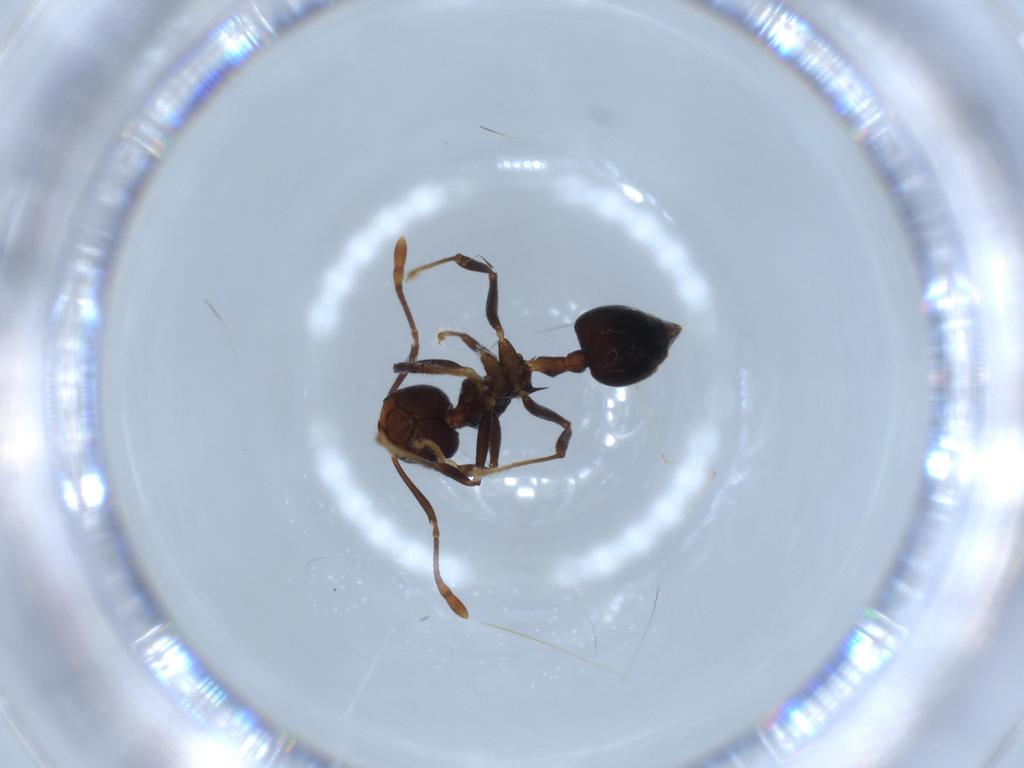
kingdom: Animalia
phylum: Arthropoda
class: Insecta
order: Hymenoptera
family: Formicidae
